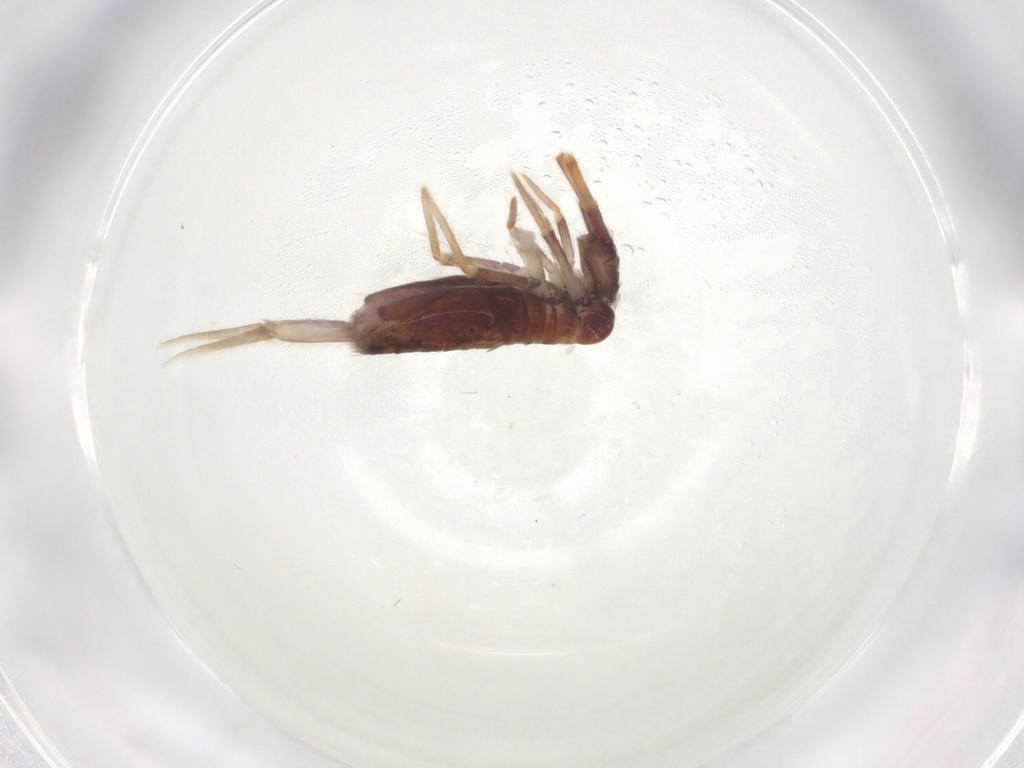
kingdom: Animalia
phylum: Arthropoda
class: Collembola
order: Entomobryomorpha
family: Entomobryidae
